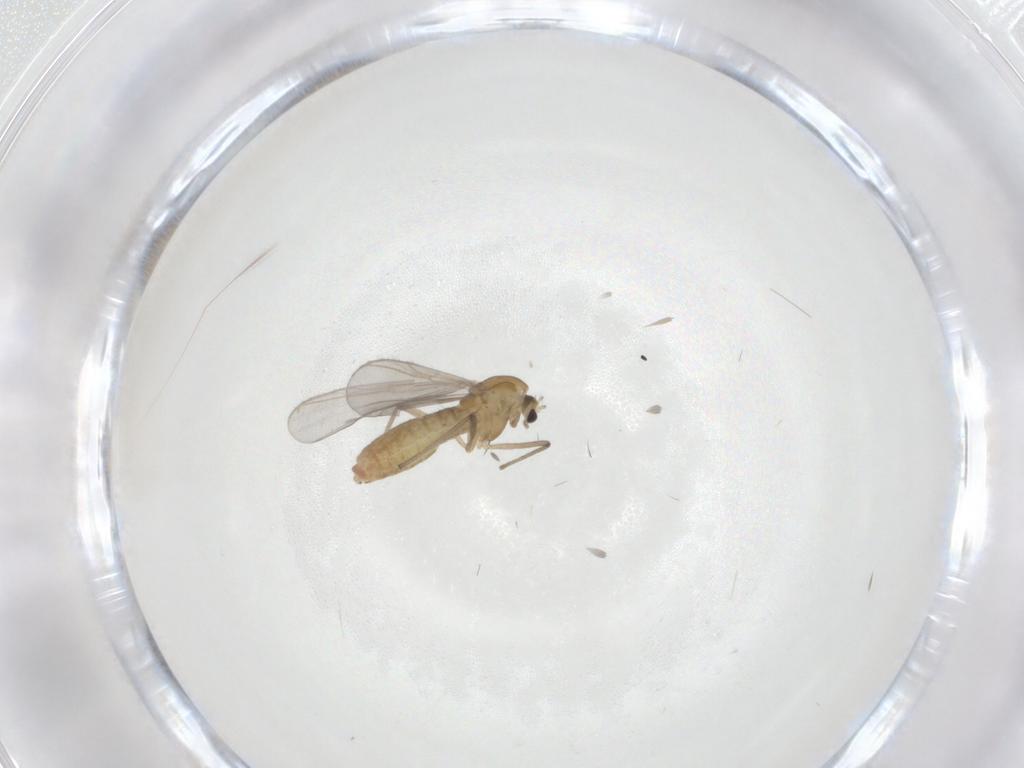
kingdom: Animalia
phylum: Arthropoda
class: Insecta
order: Diptera
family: Chironomidae
